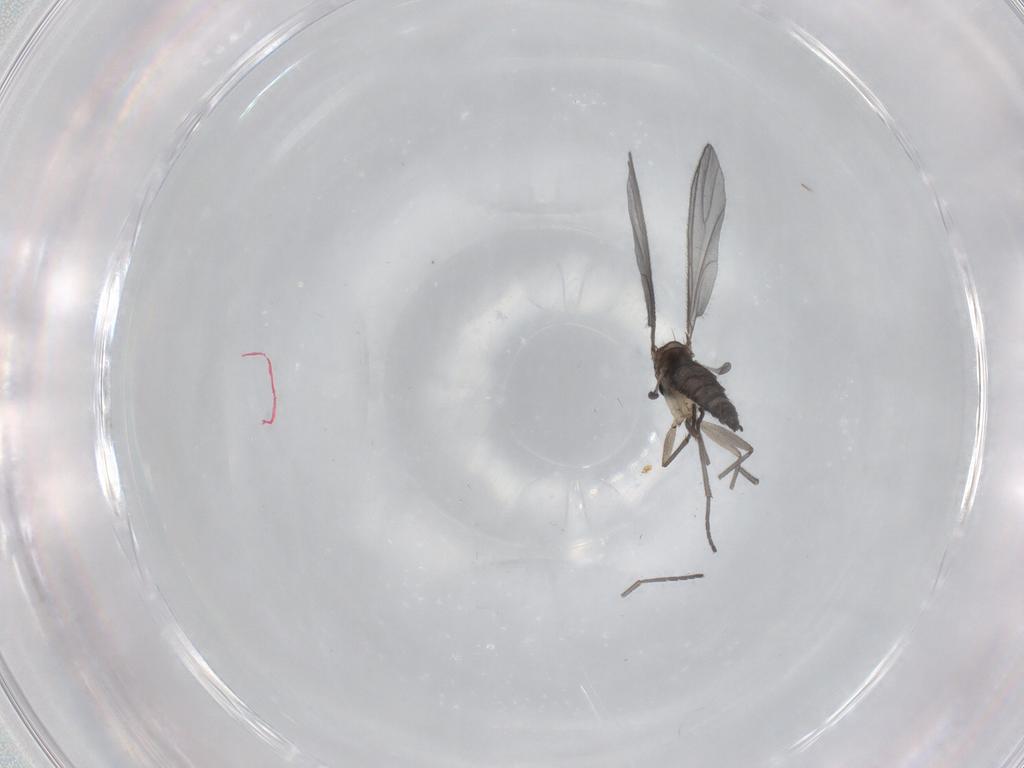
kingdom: Animalia
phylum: Arthropoda
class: Insecta
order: Diptera
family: Sciaridae
